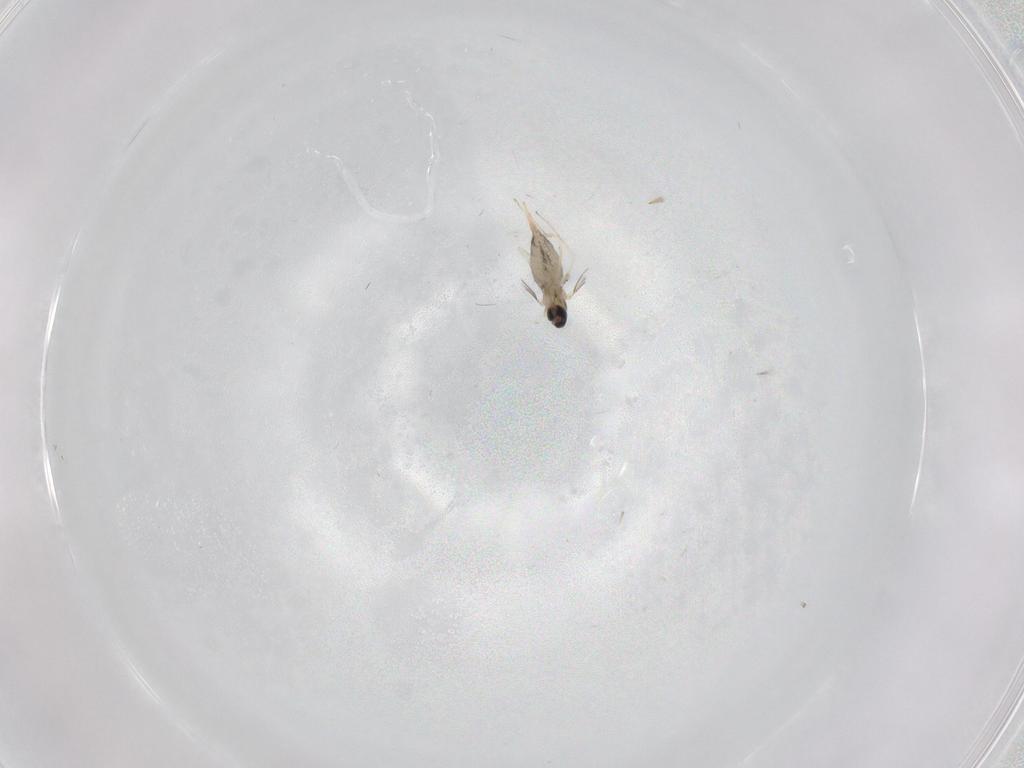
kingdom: Animalia
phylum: Arthropoda
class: Insecta
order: Diptera
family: Cecidomyiidae
